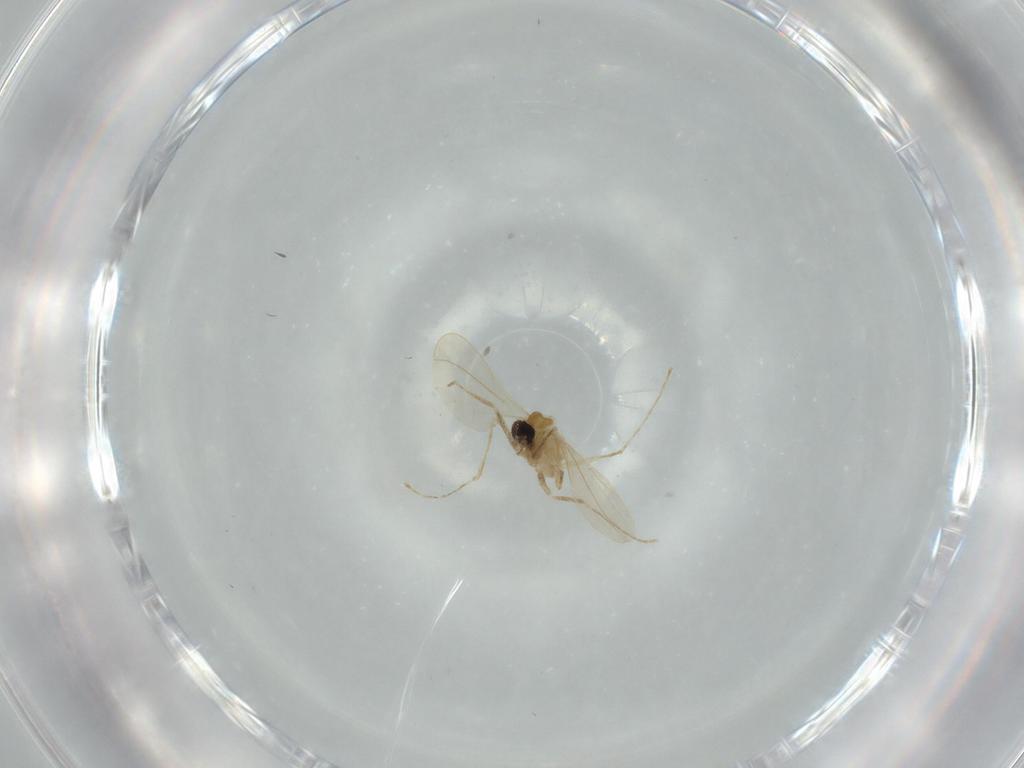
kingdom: Animalia
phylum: Arthropoda
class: Insecta
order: Diptera
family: Cecidomyiidae
